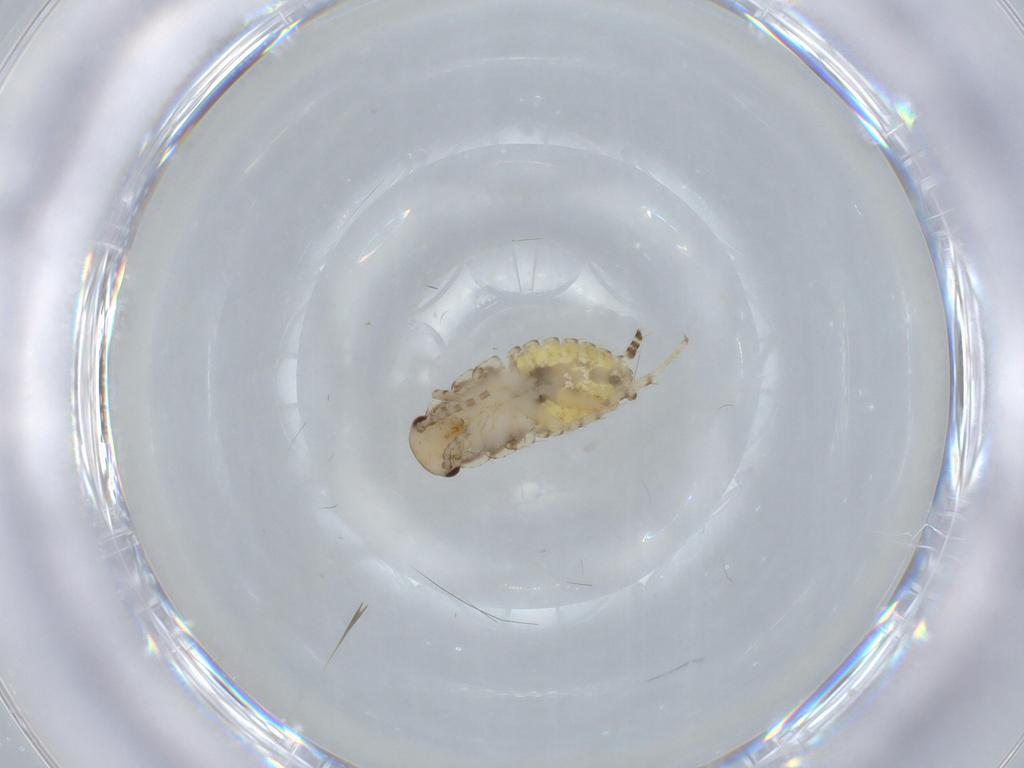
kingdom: Animalia
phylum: Arthropoda
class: Insecta
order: Blattodea
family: Ectobiidae
